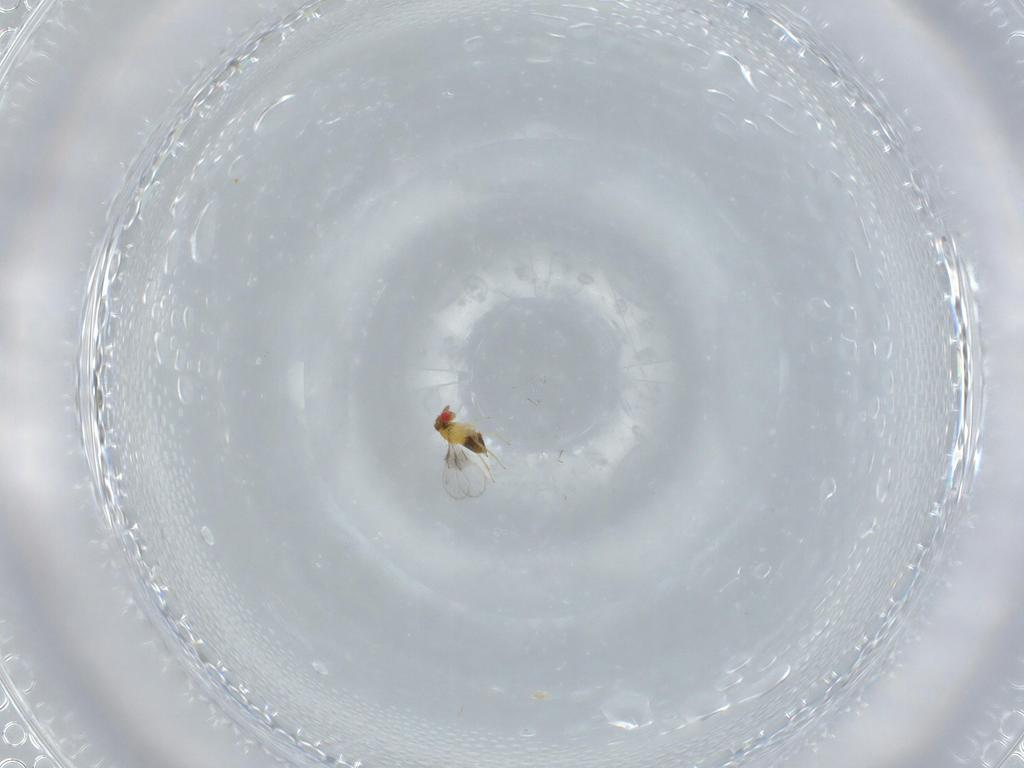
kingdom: Animalia
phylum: Arthropoda
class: Insecta
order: Hymenoptera
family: Trichogrammatidae
